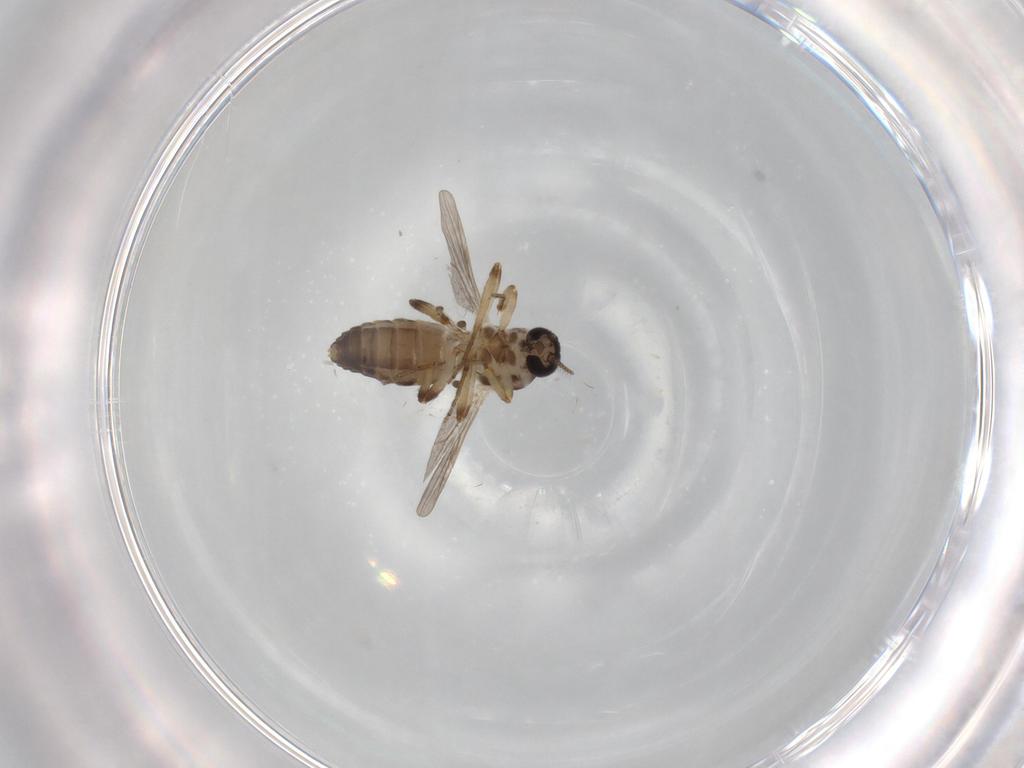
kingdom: Animalia
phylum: Arthropoda
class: Insecta
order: Diptera
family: Ceratopogonidae
